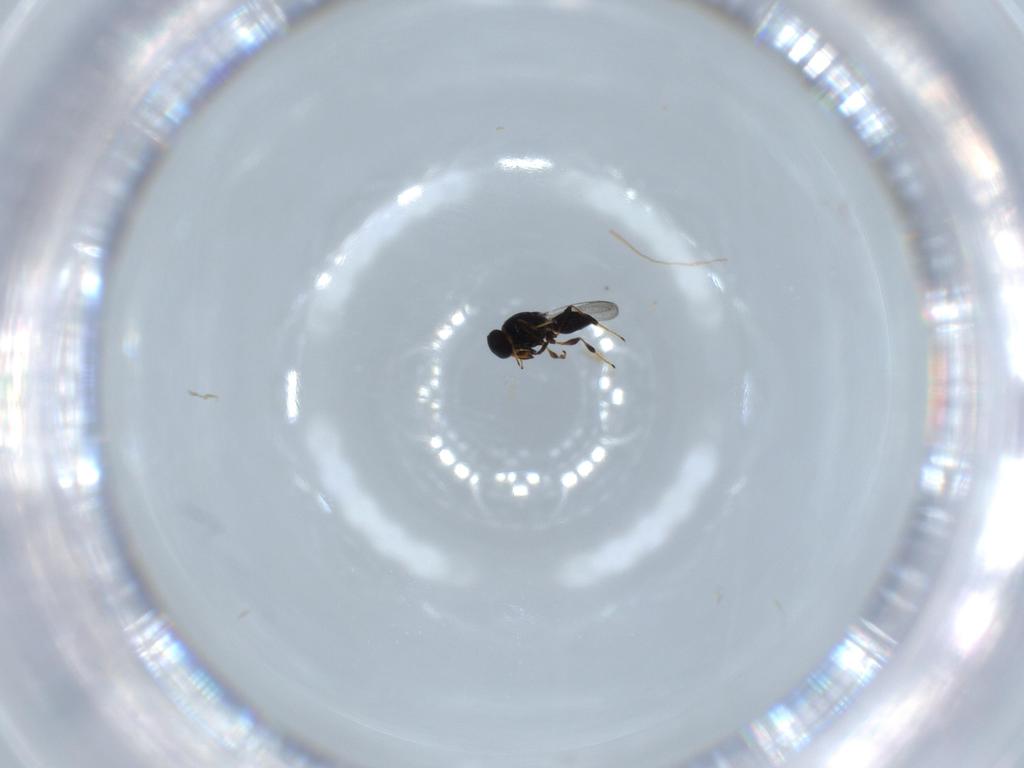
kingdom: Animalia
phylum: Arthropoda
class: Insecta
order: Hymenoptera
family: Platygastridae
